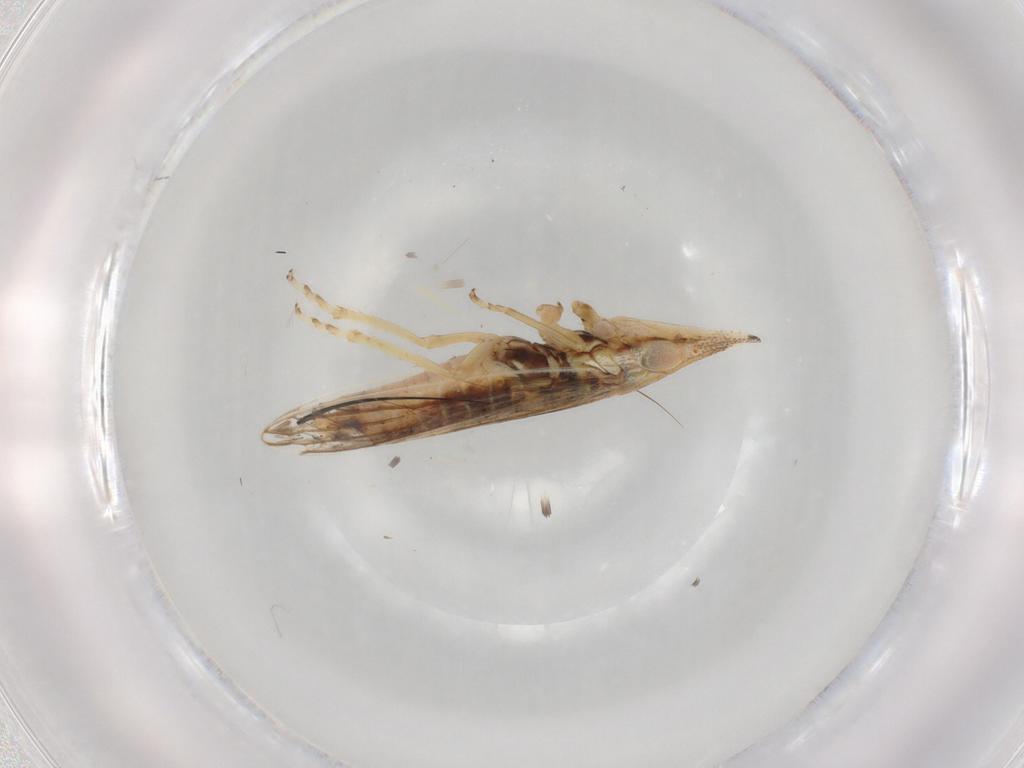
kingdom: Animalia
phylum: Arthropoda
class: Insecta
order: Hemiptera
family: Cicadellidae
